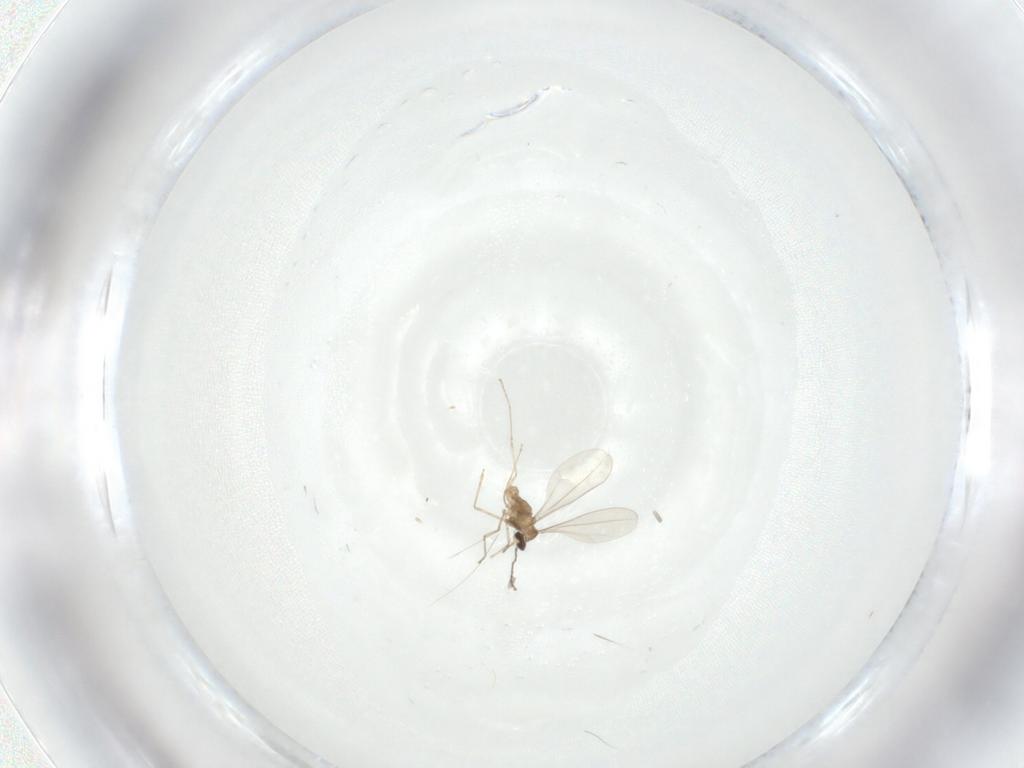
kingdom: Animalia
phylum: Arthropoda
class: Insecta
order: Diptera
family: Cecidomyiidae
